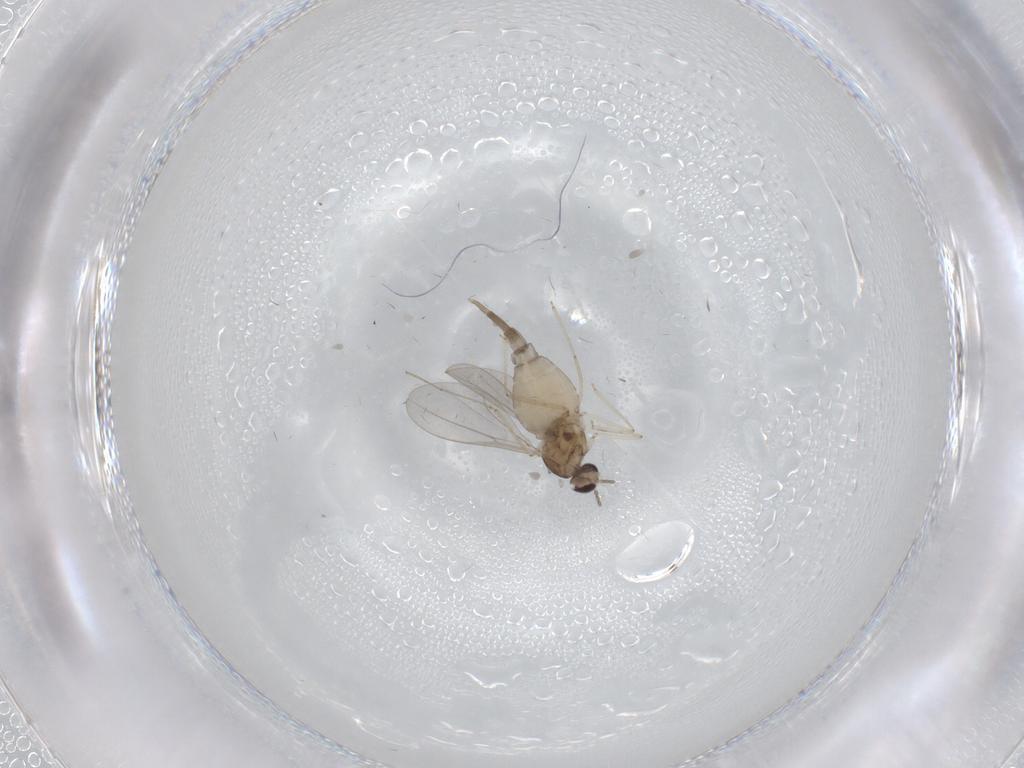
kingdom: Animalia
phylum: Arthropoda
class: Insecta
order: Diptera
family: Cecidomyiidae
